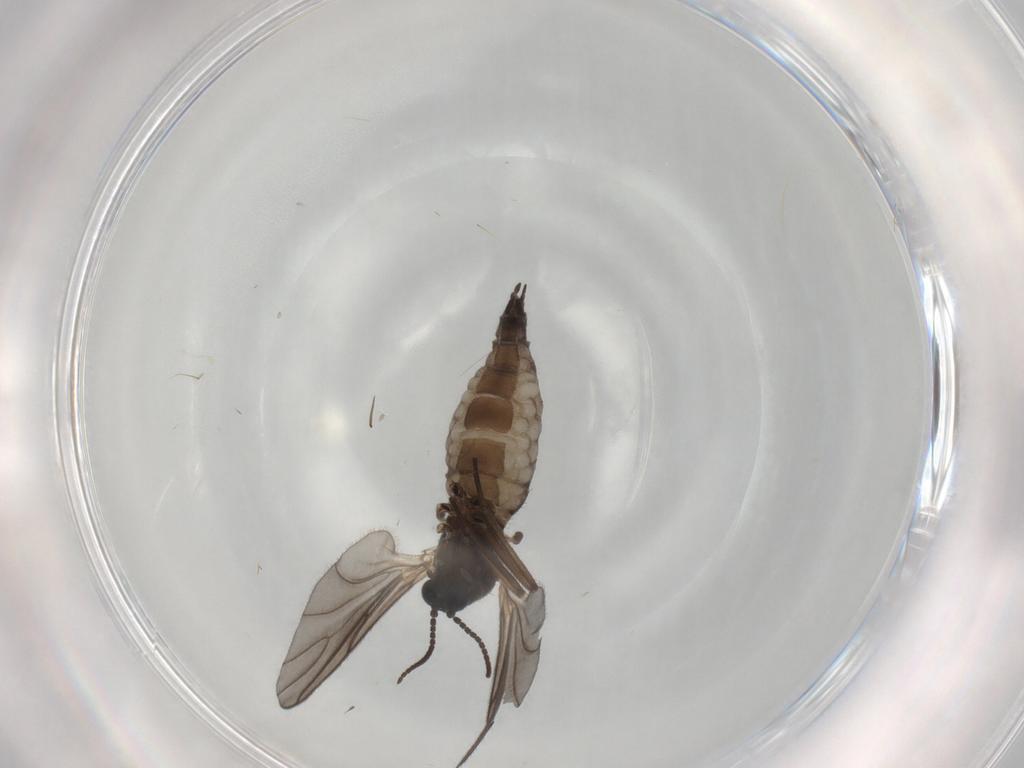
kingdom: Animalia
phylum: Arthropoda
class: Insecta
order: Diptera
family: Sciaridae
